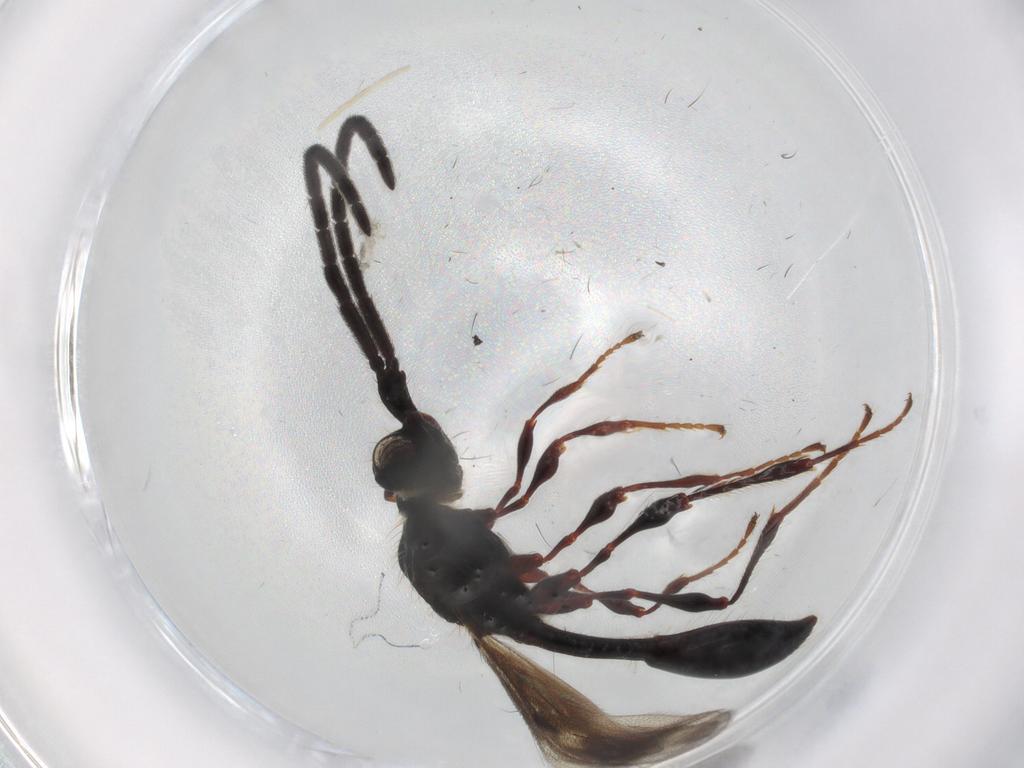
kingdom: Animalia
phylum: Arthropoda
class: Insecta
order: Hymenoptera
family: Diapriidae
